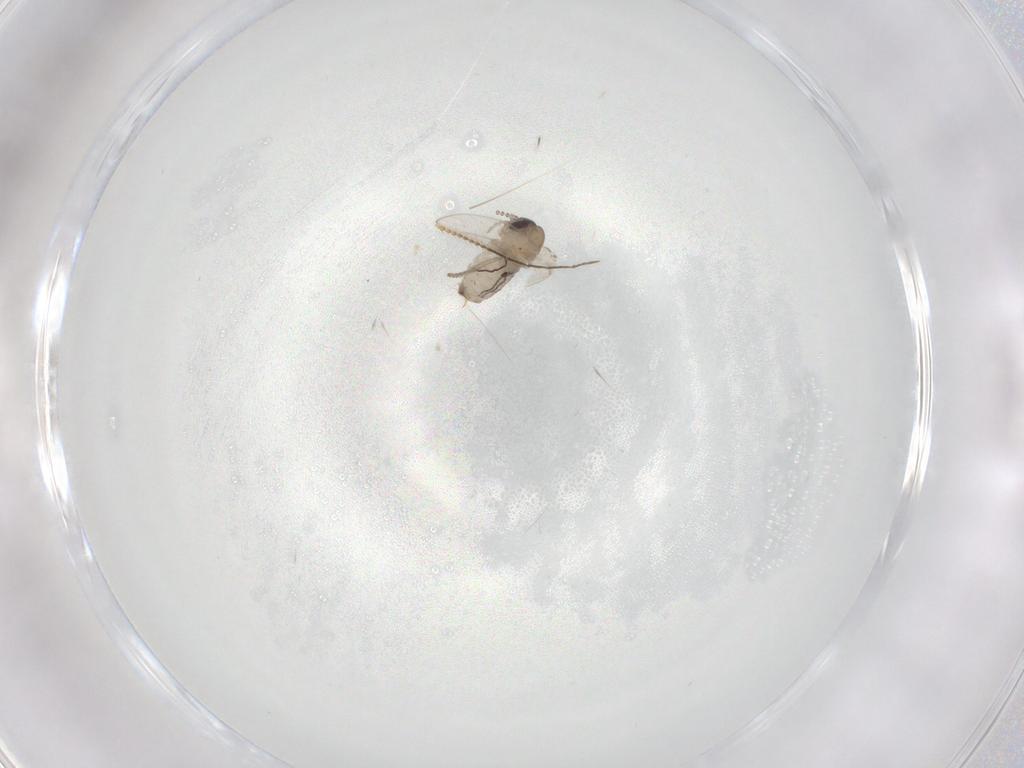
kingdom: Animalia
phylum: Arthropoda
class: Insecta
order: Diptera
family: Psychodidae
